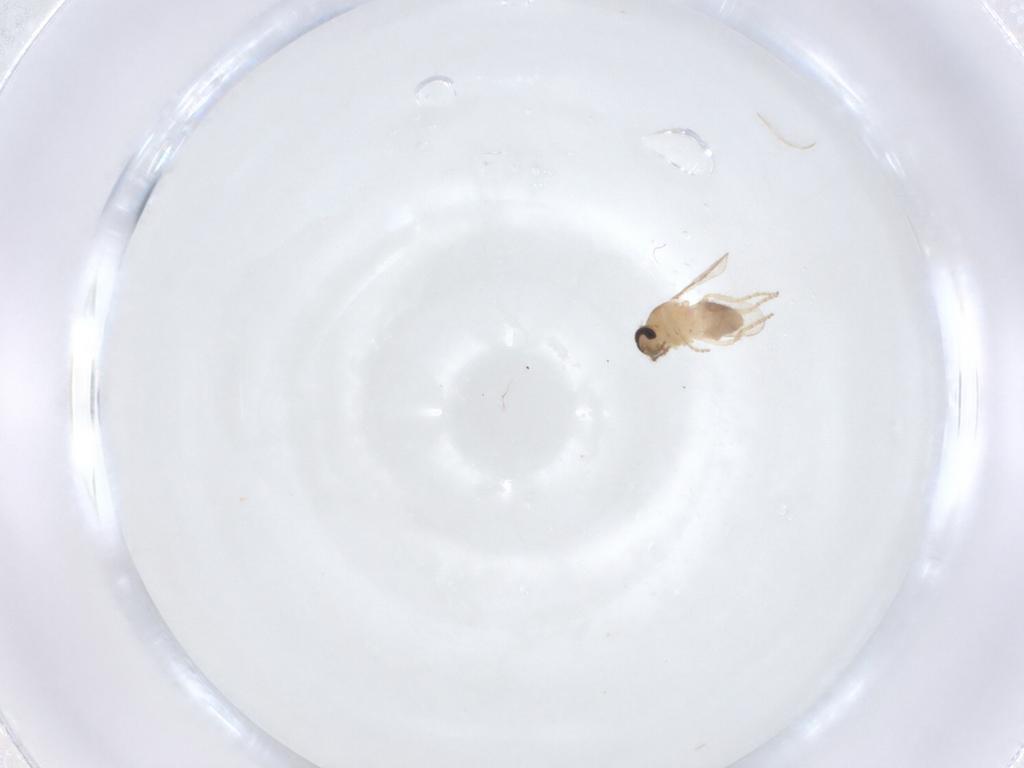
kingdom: Animalia
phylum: Arthropoda
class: Insecta
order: Diptera
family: Ceratopogonidae
